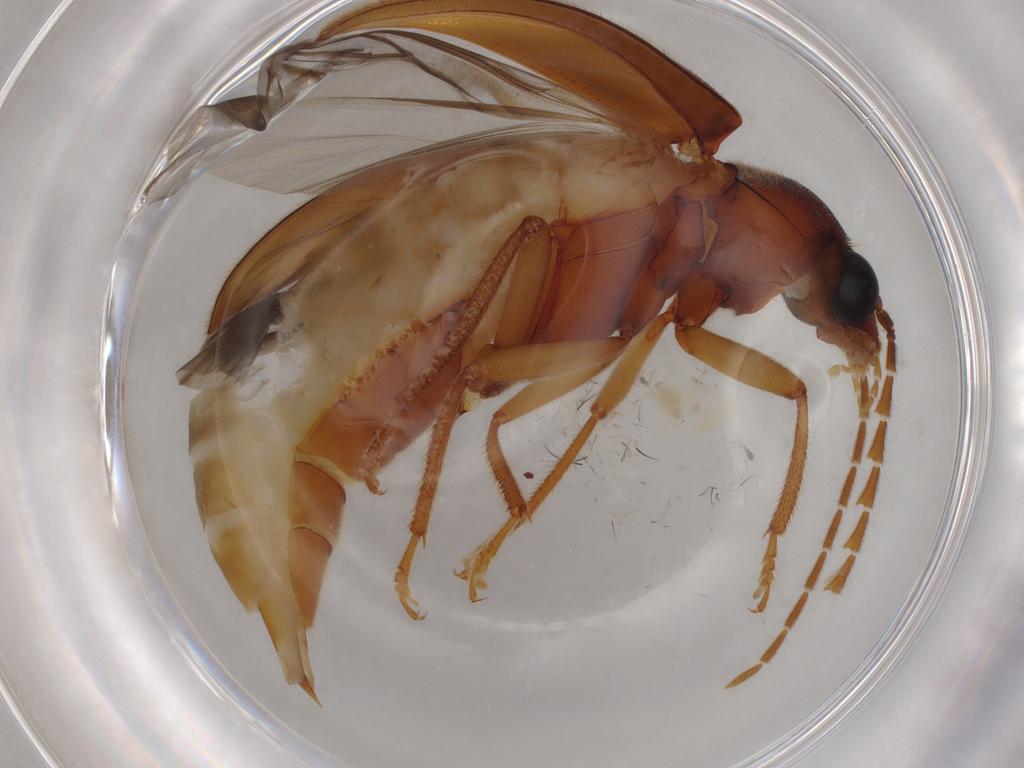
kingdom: Animalia
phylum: Arthropoda
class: Insecta
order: Coleoptera
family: Ptilodactylidae
